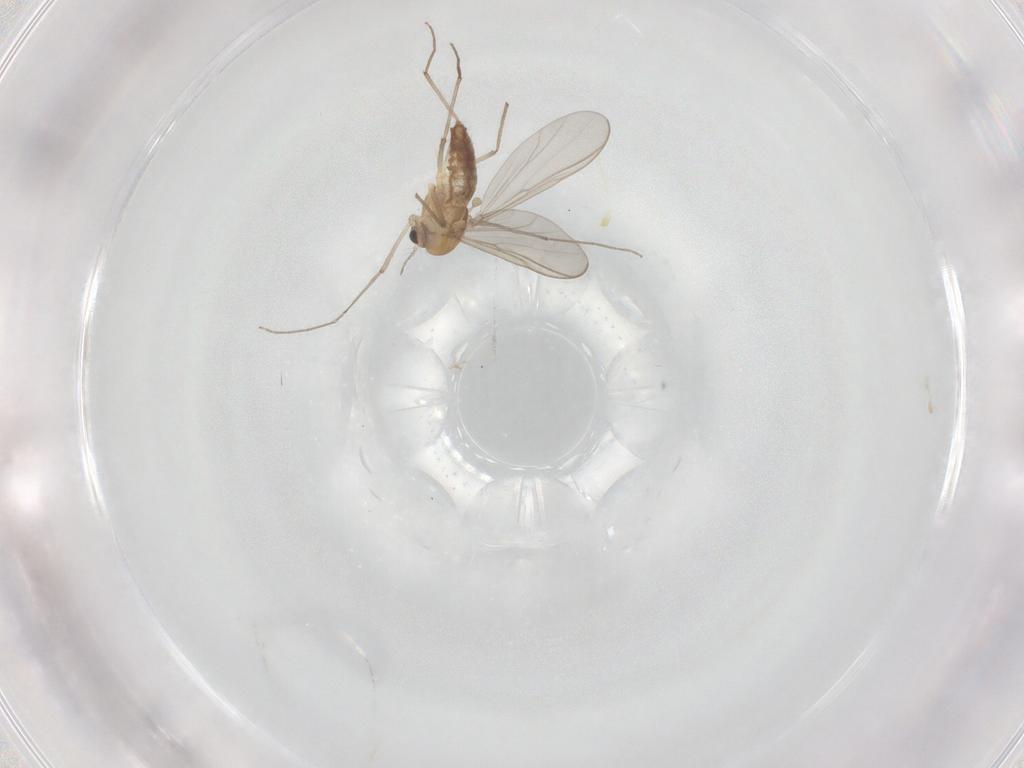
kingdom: Animalia
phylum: Arthropoda
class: Insecta
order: Diptera
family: Chironomidae
